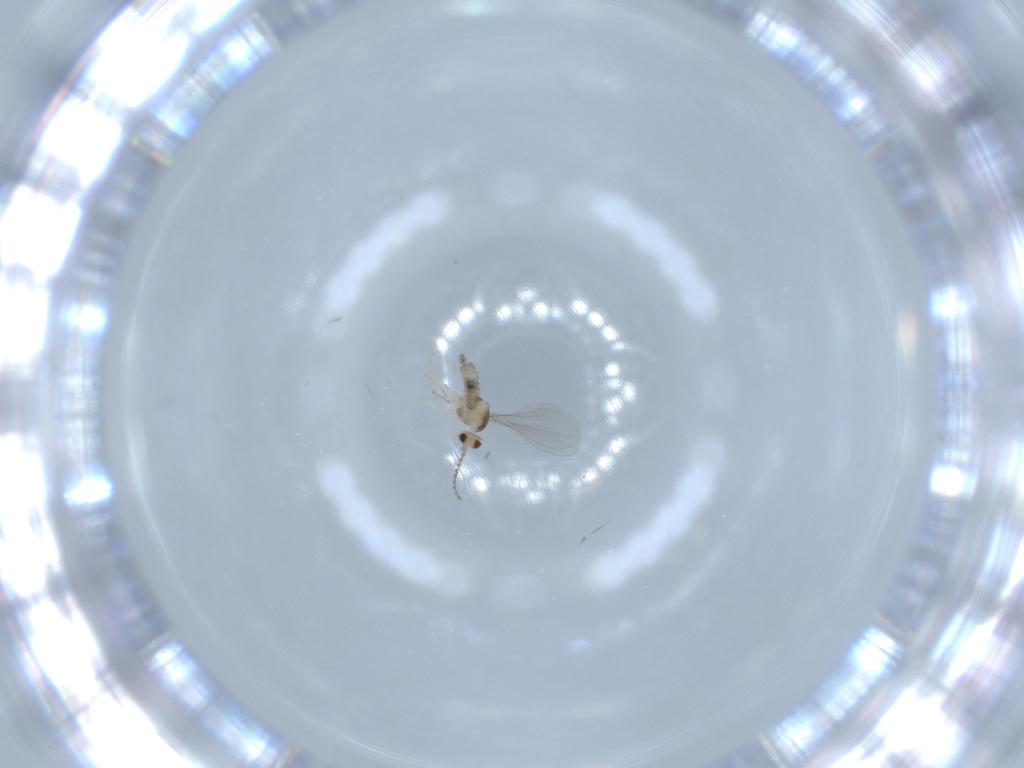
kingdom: Animalia
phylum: Arthropoda
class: Insecta
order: Diptera
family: Cecidomyiidae
